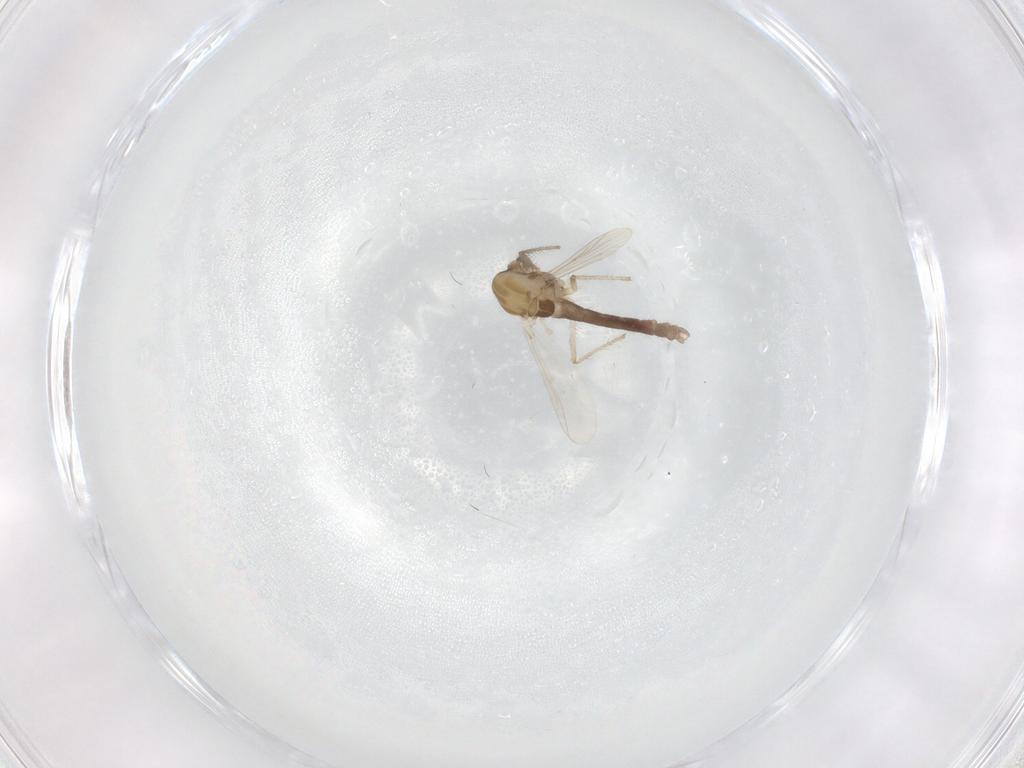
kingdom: Animalia
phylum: Arthropoda
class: Insecta
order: Diptera
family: Chironomidae
